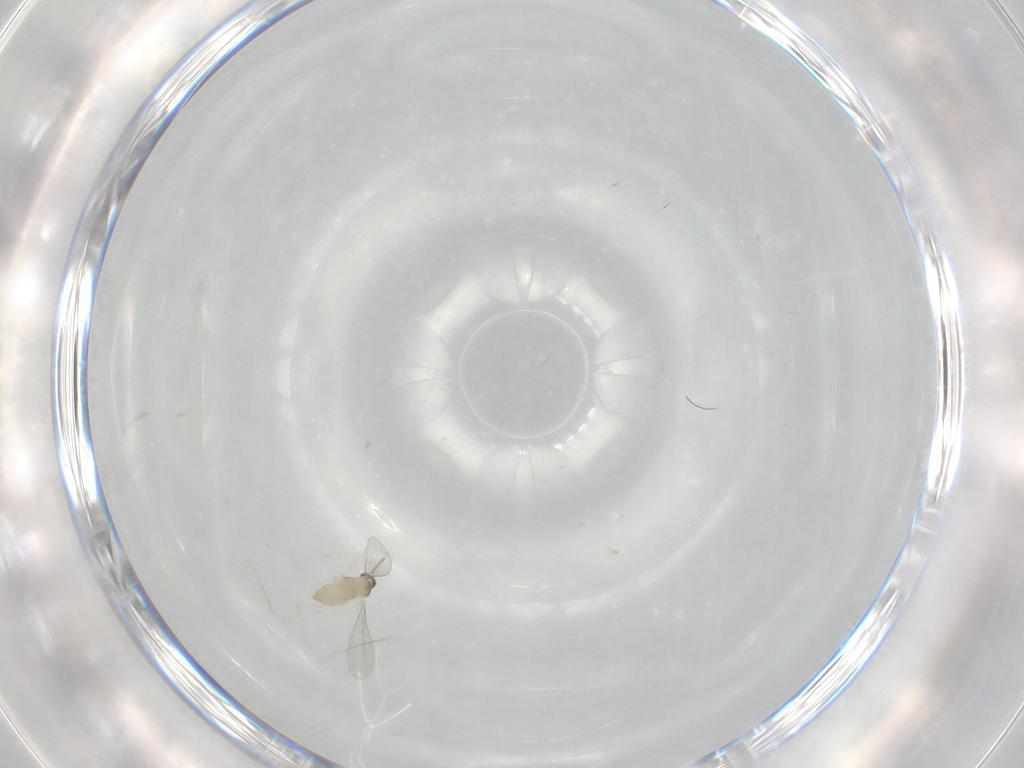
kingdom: Animalia
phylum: Arthropoda
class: Insecta
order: Diptera
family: Cecidomyiidae
